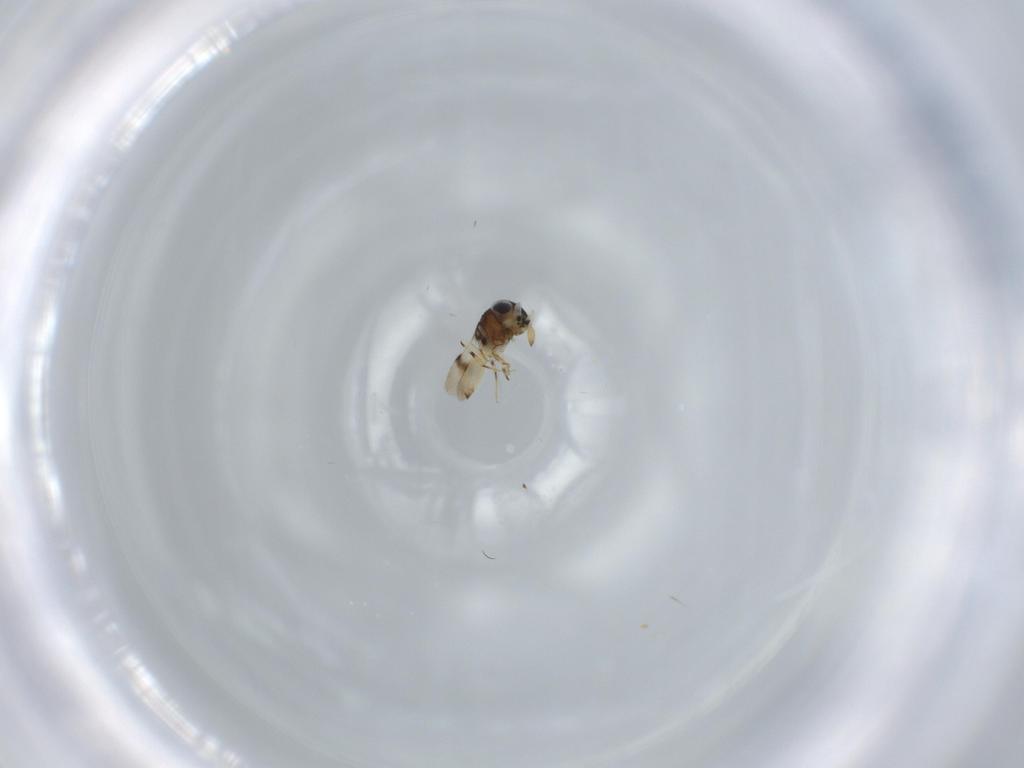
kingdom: Animalia
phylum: Arthropoda
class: Insecta
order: Hymenoptera
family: Scelionidae
